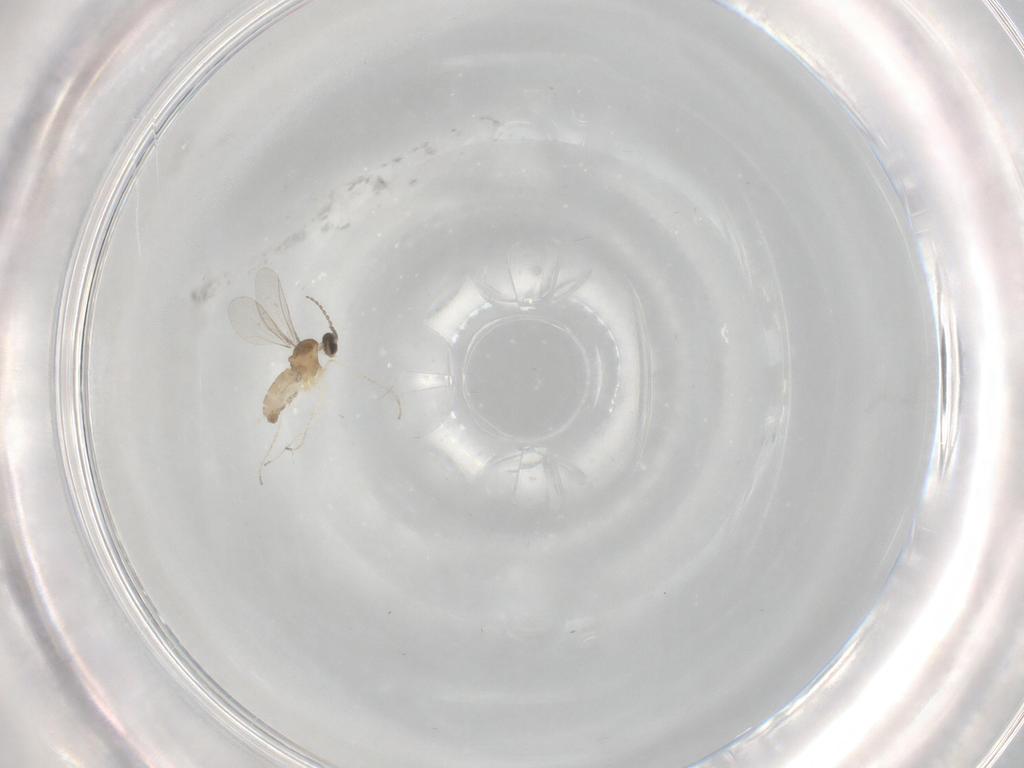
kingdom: Animalia
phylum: Arthropoda
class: Insecta
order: Diptera
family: Cecidomyiidae
